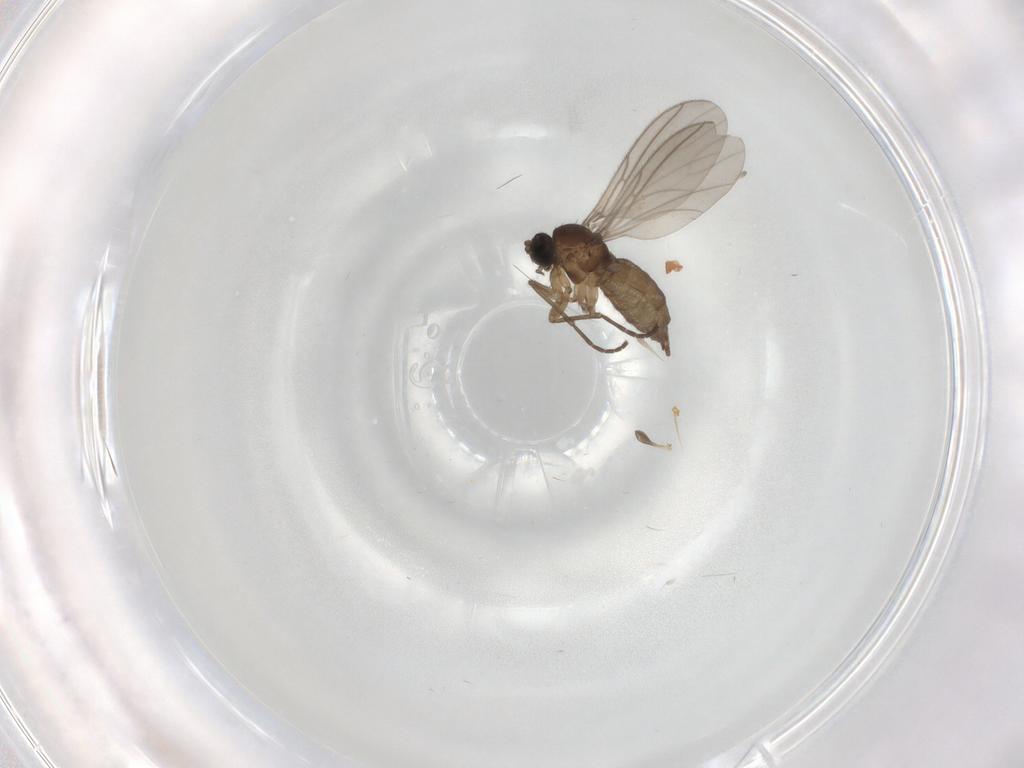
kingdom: Animalia
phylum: Arthropoda
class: Insecta
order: Diptera
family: Sciaridae
